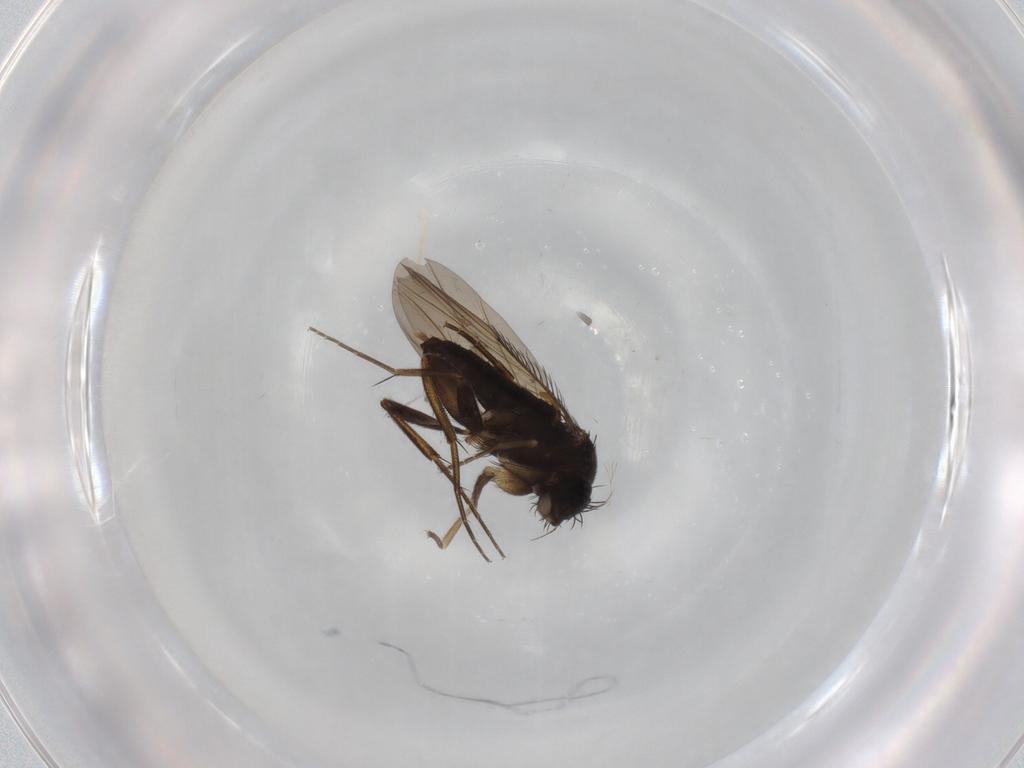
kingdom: Animalia
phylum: Arthropoda
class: Insecta
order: Diptera
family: Phoridae
